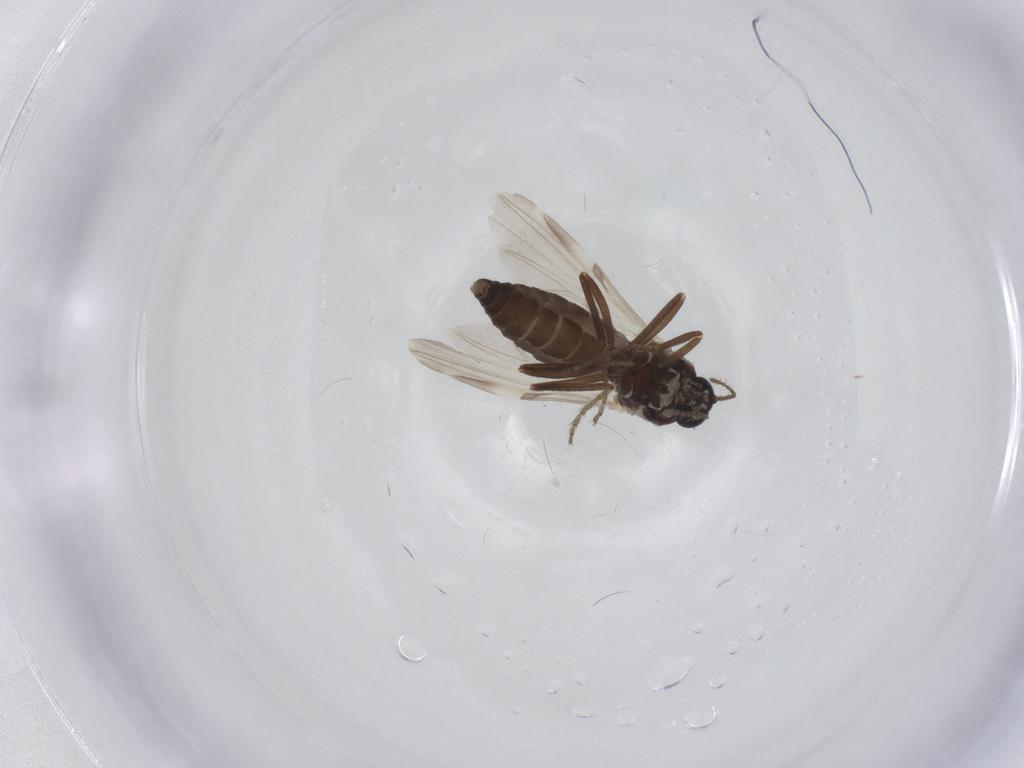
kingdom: Animalia
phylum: Arthropoda
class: Insecta
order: Diptera
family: Ceratopogonidae
